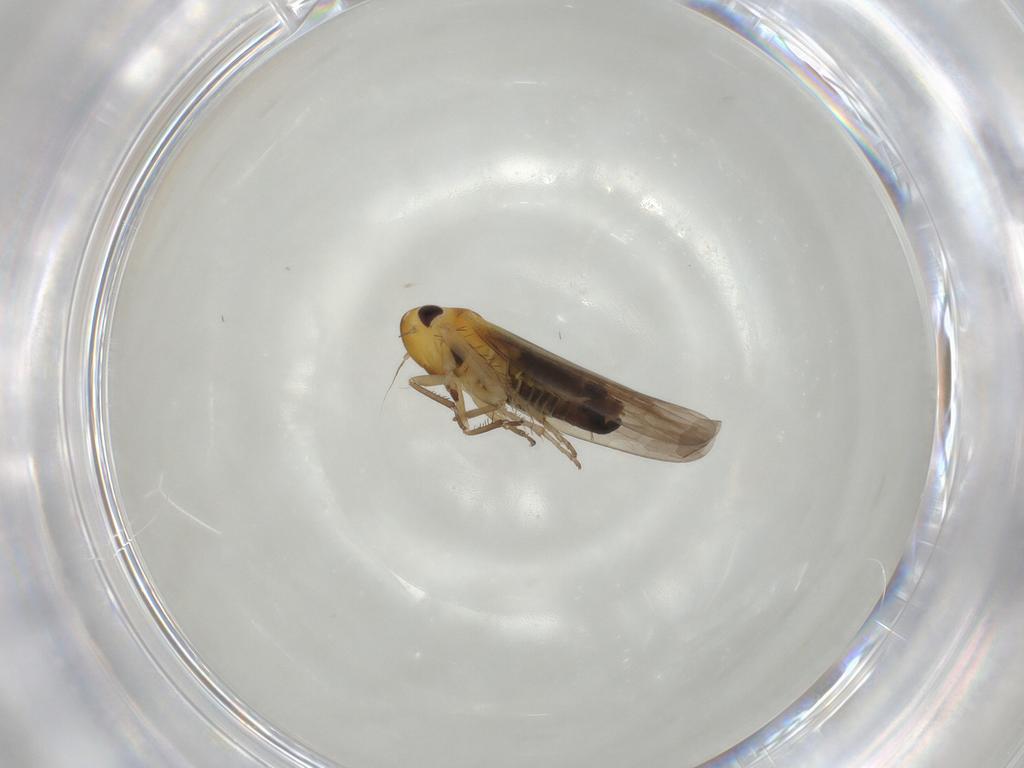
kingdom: Animalia
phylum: Arthropoda
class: Insecta
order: Hemiptera
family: Cicadellidae
